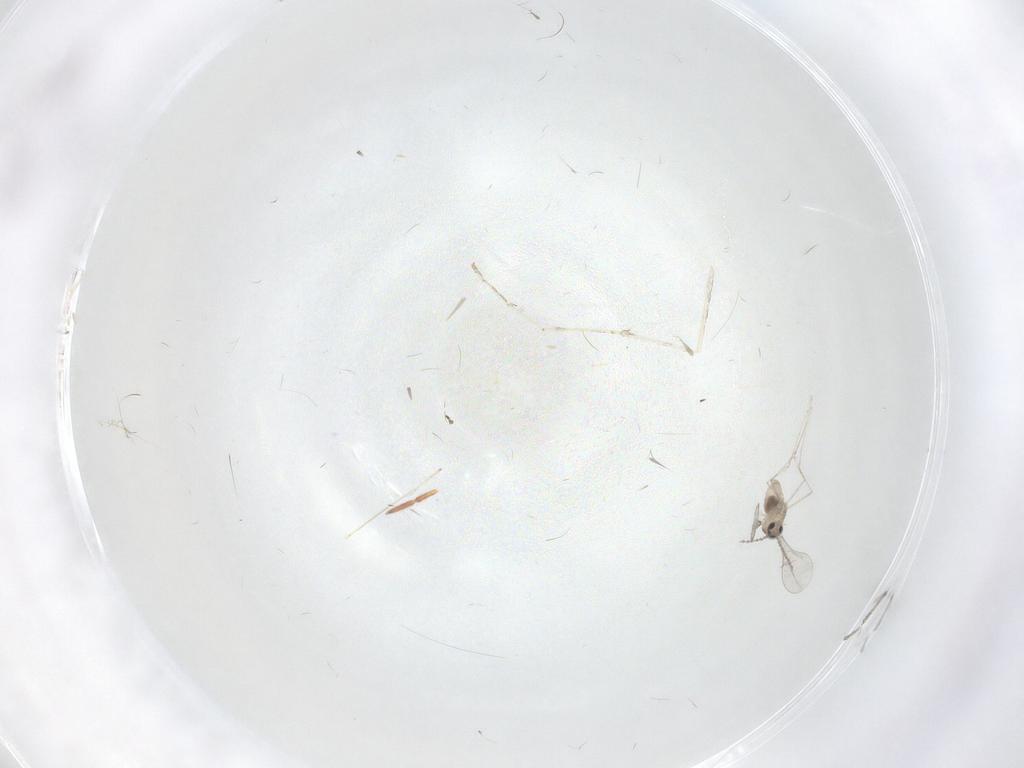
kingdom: Animalia
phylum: Arthropoda
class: Insecta
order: Diptera
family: Cecidomyiidae
